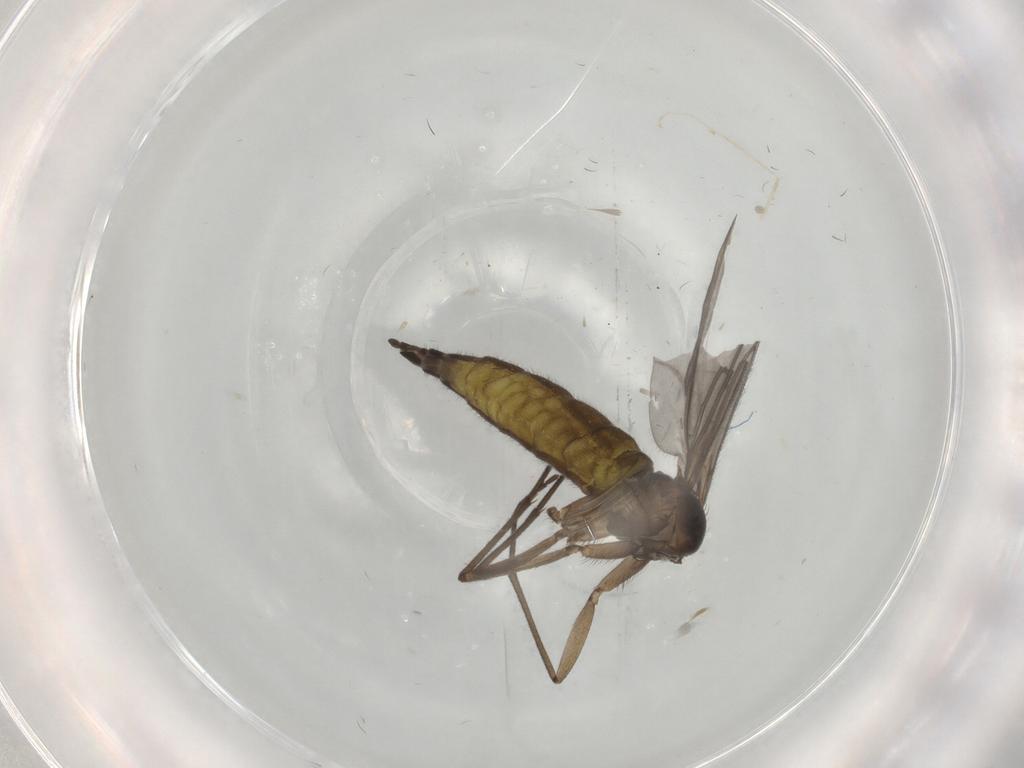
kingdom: Animalia
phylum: Arthropoda
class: Insecta
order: Diptera
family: Sciaridae
